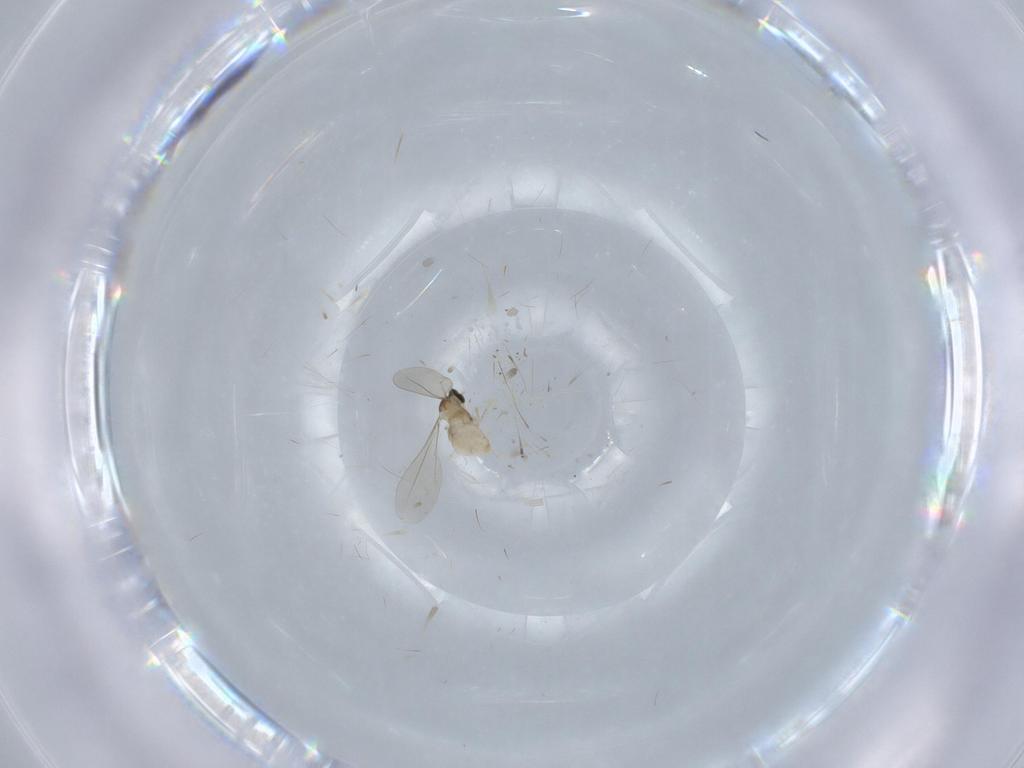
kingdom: Animalia
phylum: Arthropoda
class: Insecta
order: Diptera
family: Cecidomyiidae
